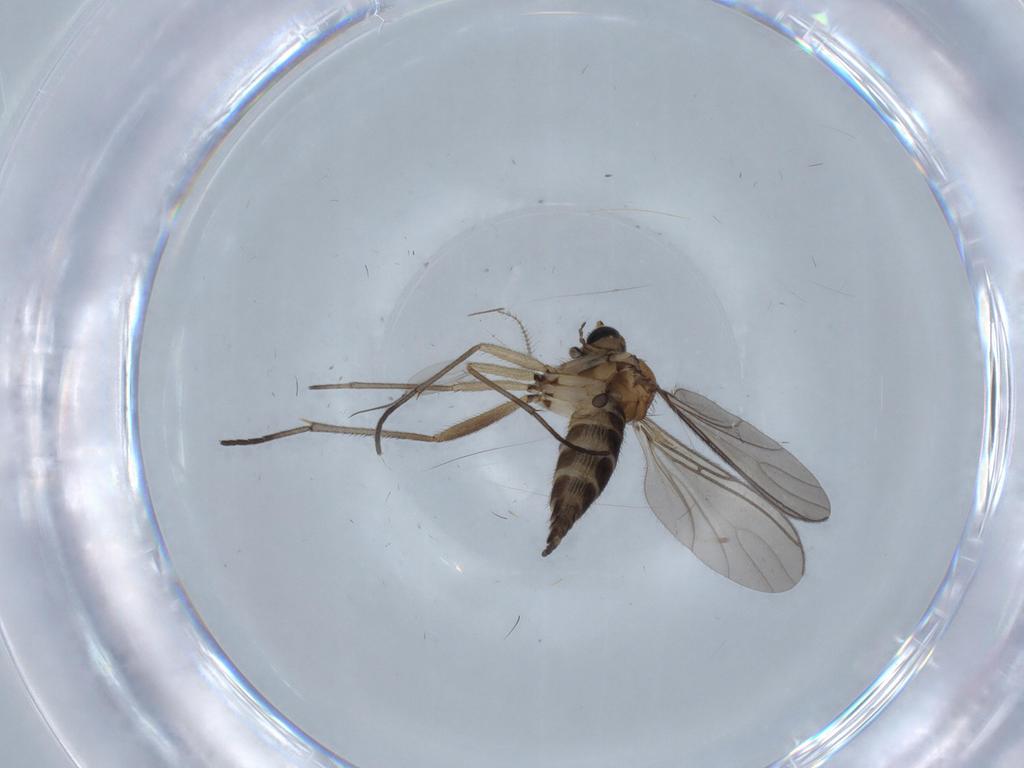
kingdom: Animalia
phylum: Arthropoda
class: Insecta
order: Diptera
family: Sciaridae
